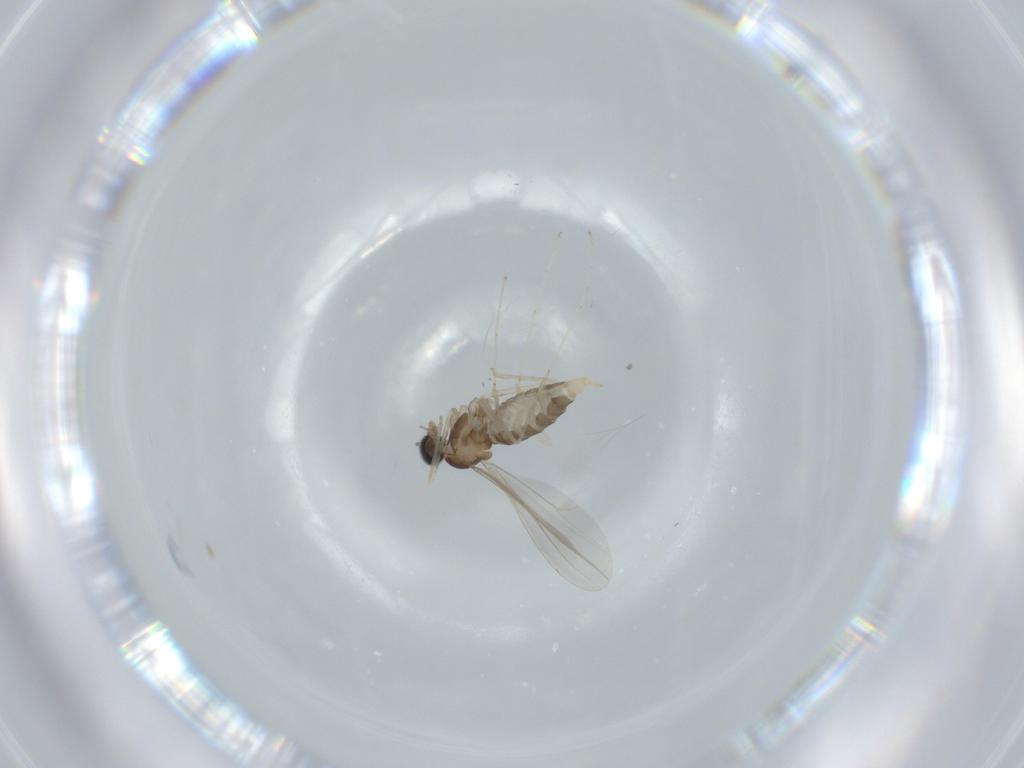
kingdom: Animalia
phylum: Arthropoda
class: Insecta
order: Diptera
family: Cecidomyiidae
